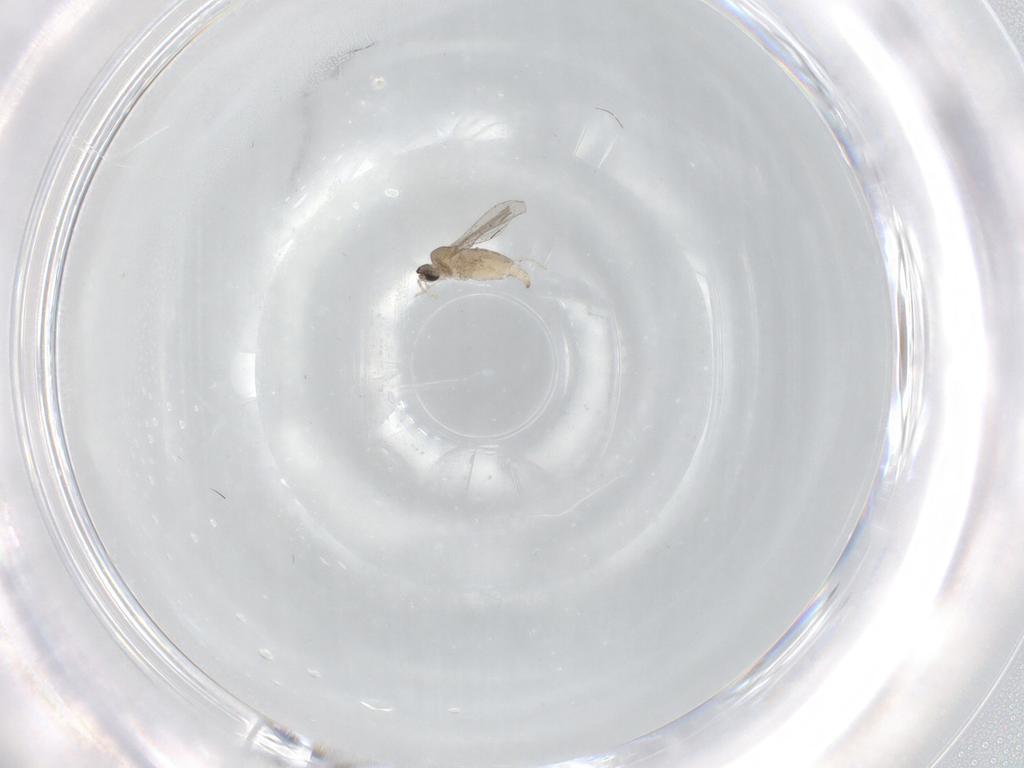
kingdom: Animalia
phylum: Arthropoda
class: Insecta
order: Diptera
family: Cecidomyiidae
